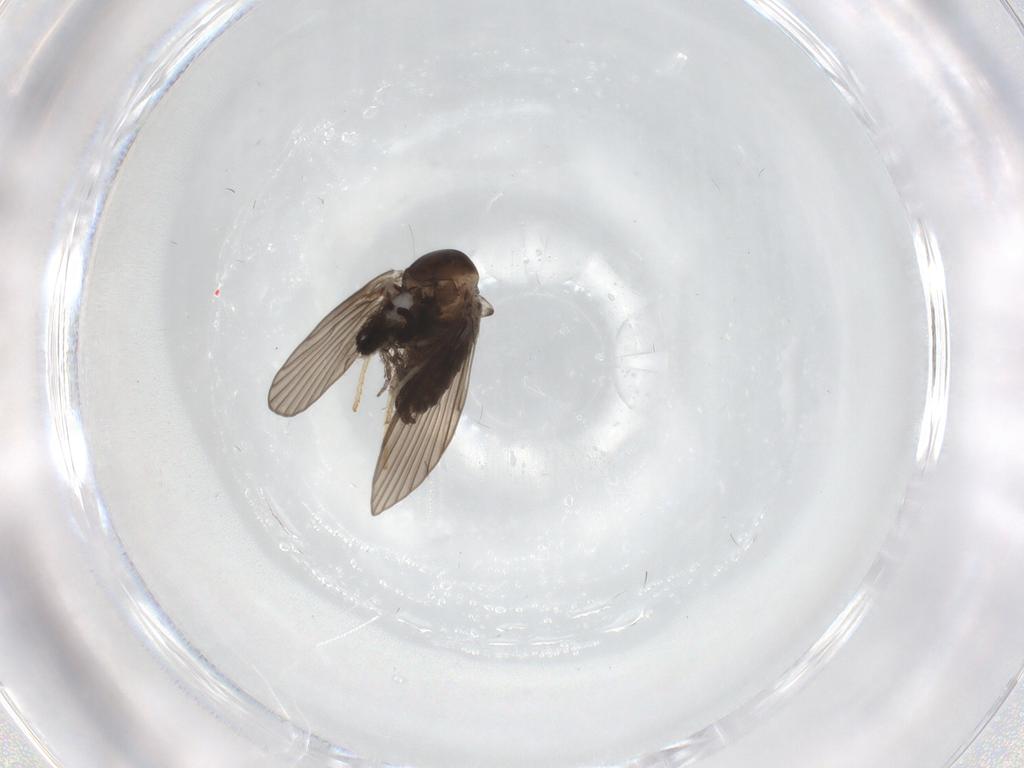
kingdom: Animalia
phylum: Arthropoda
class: Insecta
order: Diptera
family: Psychodidae
